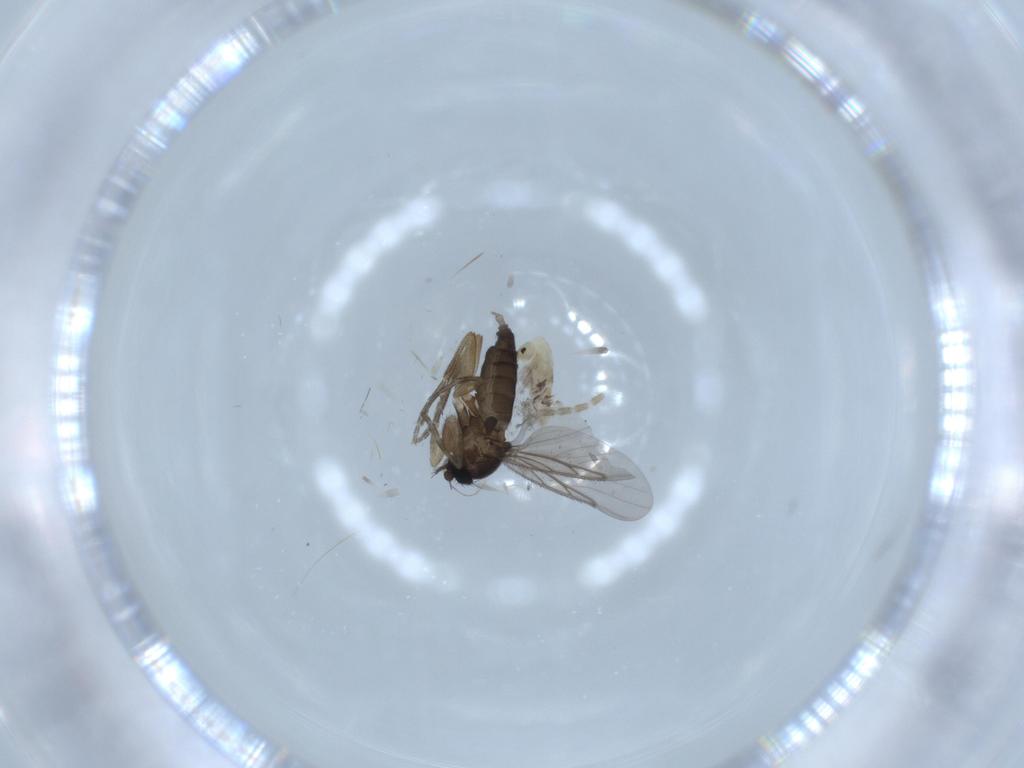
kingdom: Animalia
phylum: Arthropoda
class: Insecta
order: Diptera
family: Cecidomyiidae
